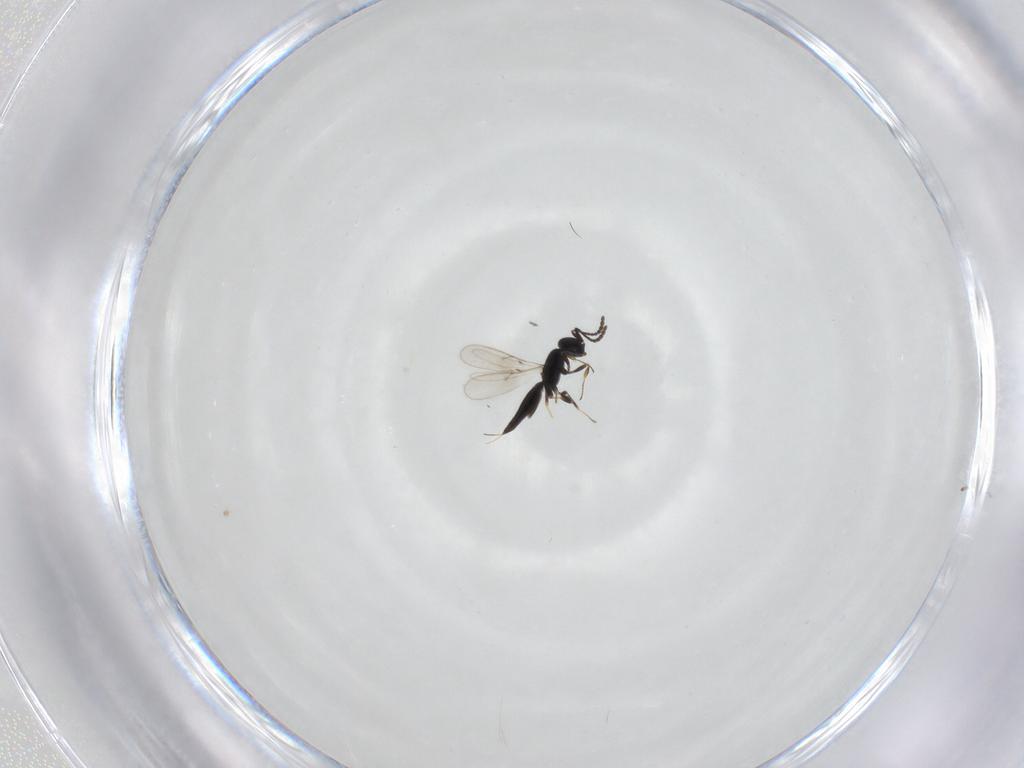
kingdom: Animalia
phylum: Arthropoda
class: Insecta
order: Hymenoptera
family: Scelionidae
